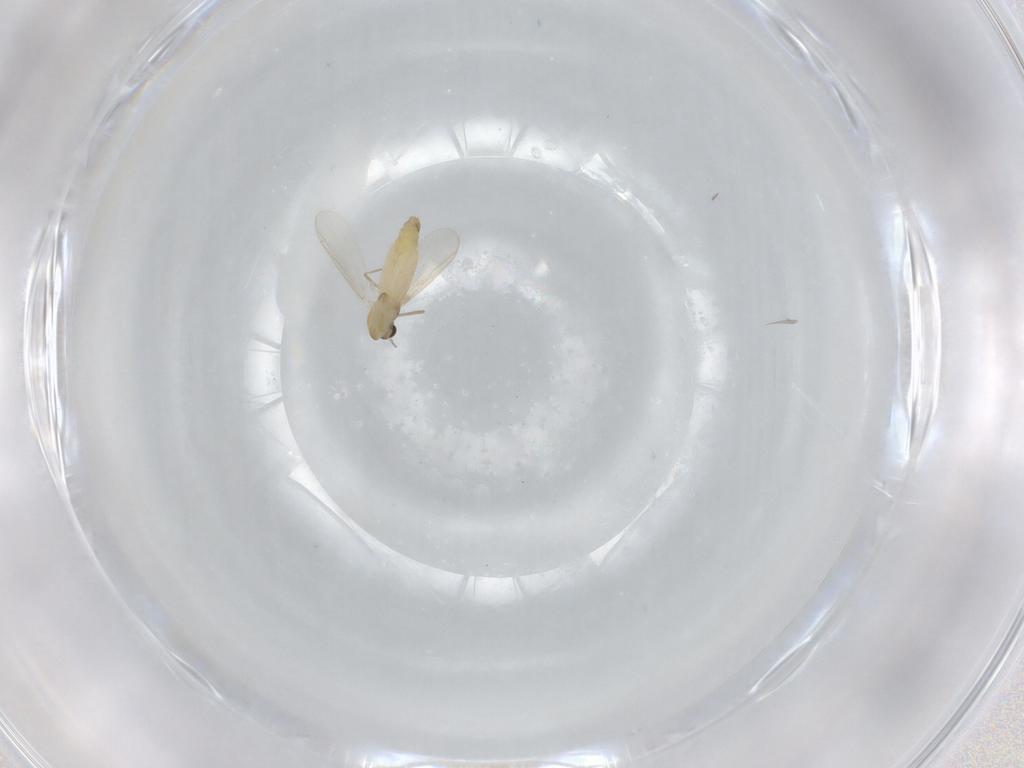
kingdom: Animalia
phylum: Arthropoda
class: Insecta
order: Diptera
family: Chironomidae
